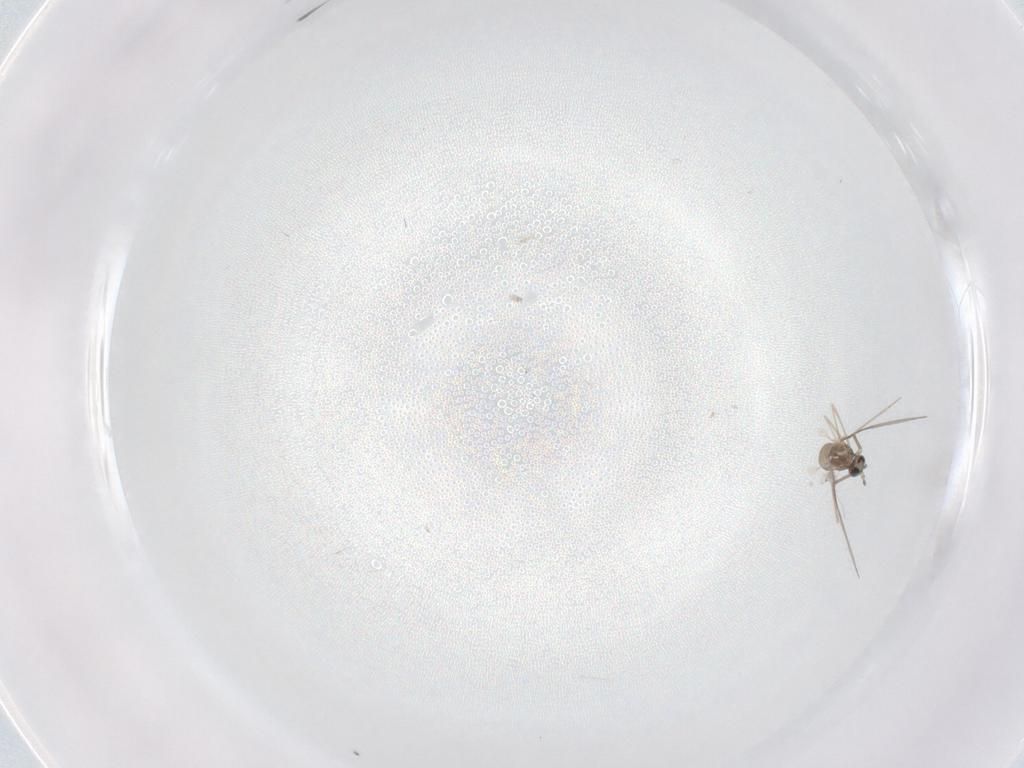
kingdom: Animalia
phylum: Arthropoda
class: Insecta
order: Diptera
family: Cecidomyiidae
